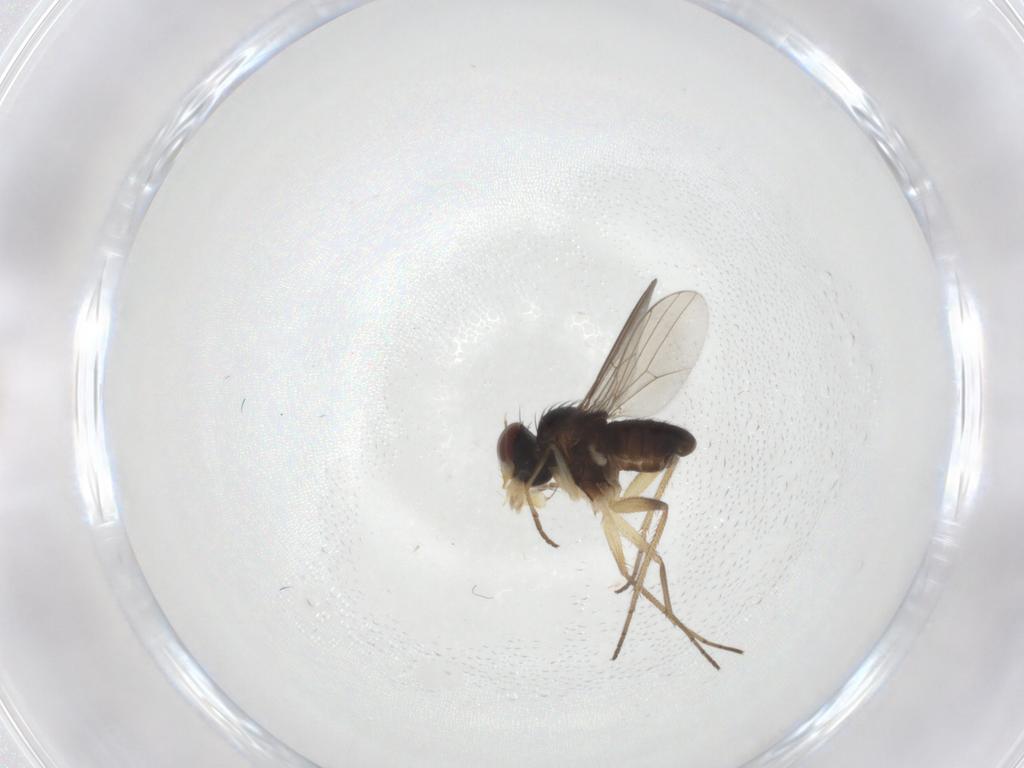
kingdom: Animalia
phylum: Arthropoda
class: Insecta
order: Diptera
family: Dolichopodidae
